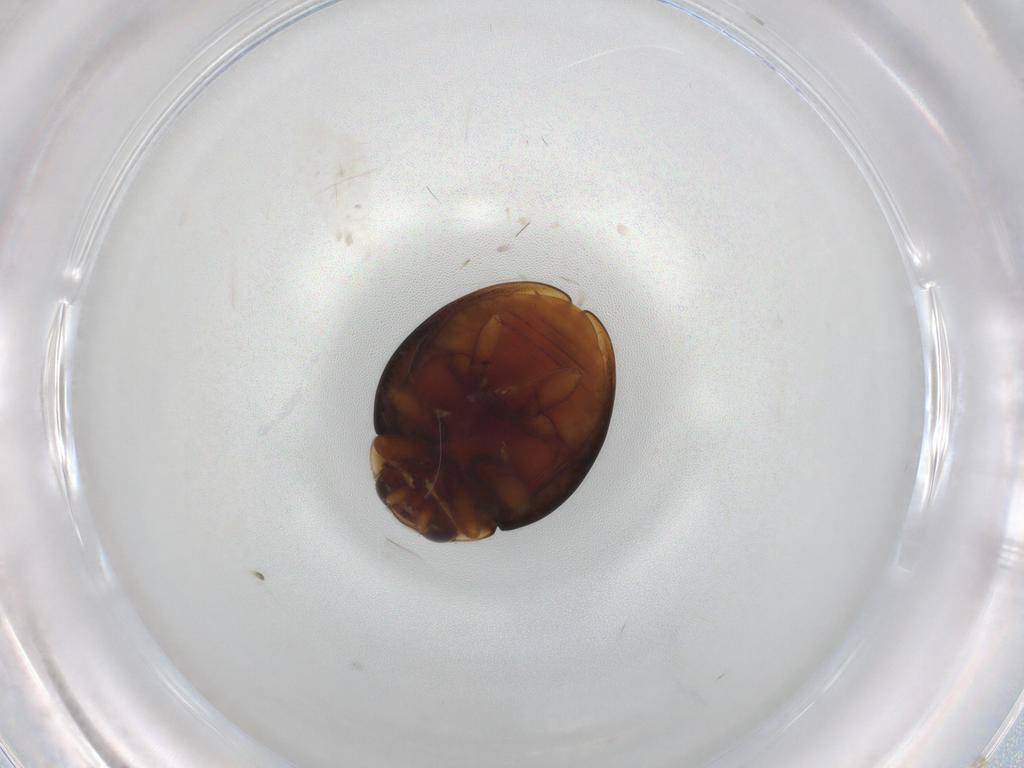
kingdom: Animalia
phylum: Arthropoda
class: Insecta
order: Coleoptera
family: Coccinellidae
